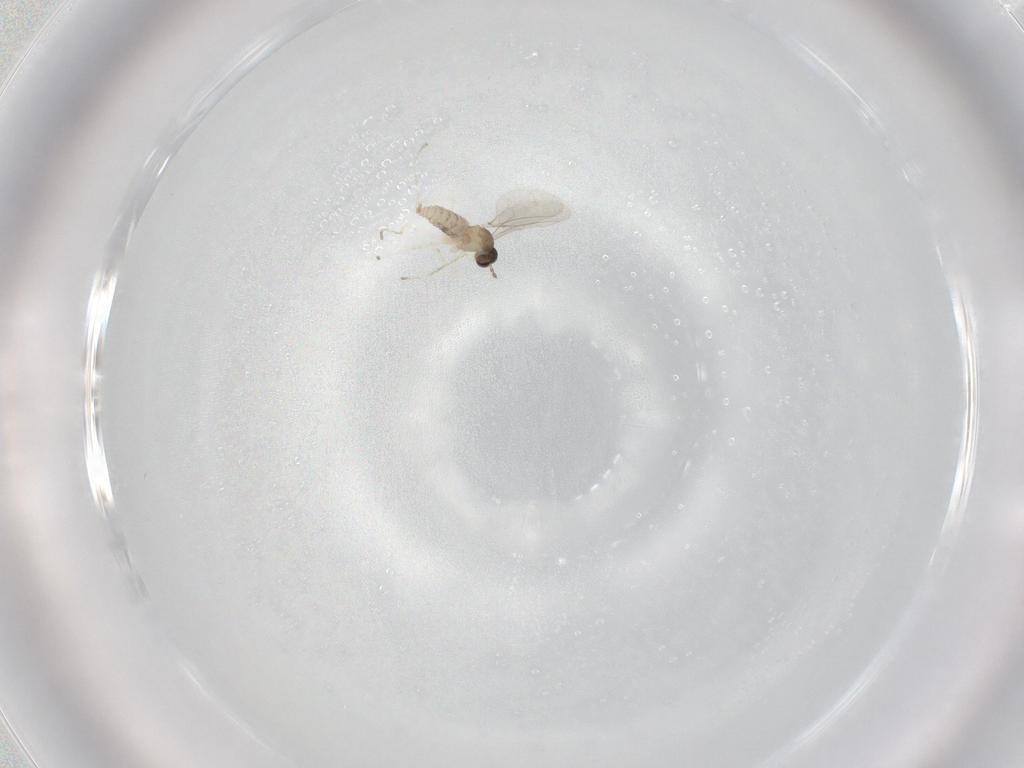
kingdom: Animalia
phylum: Arthropoda
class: Insecta
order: Diptera
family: Cecidomyiidae
